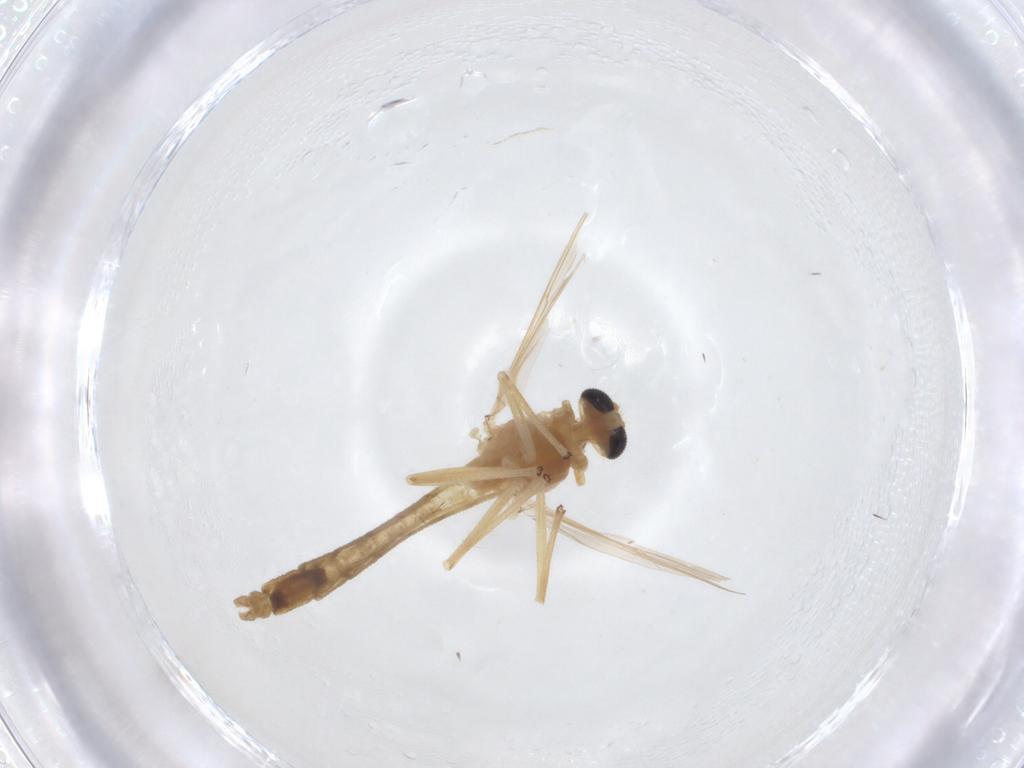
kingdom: Animalia
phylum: Arthropoda
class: Insecta
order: Diptera
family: Chironomidae
